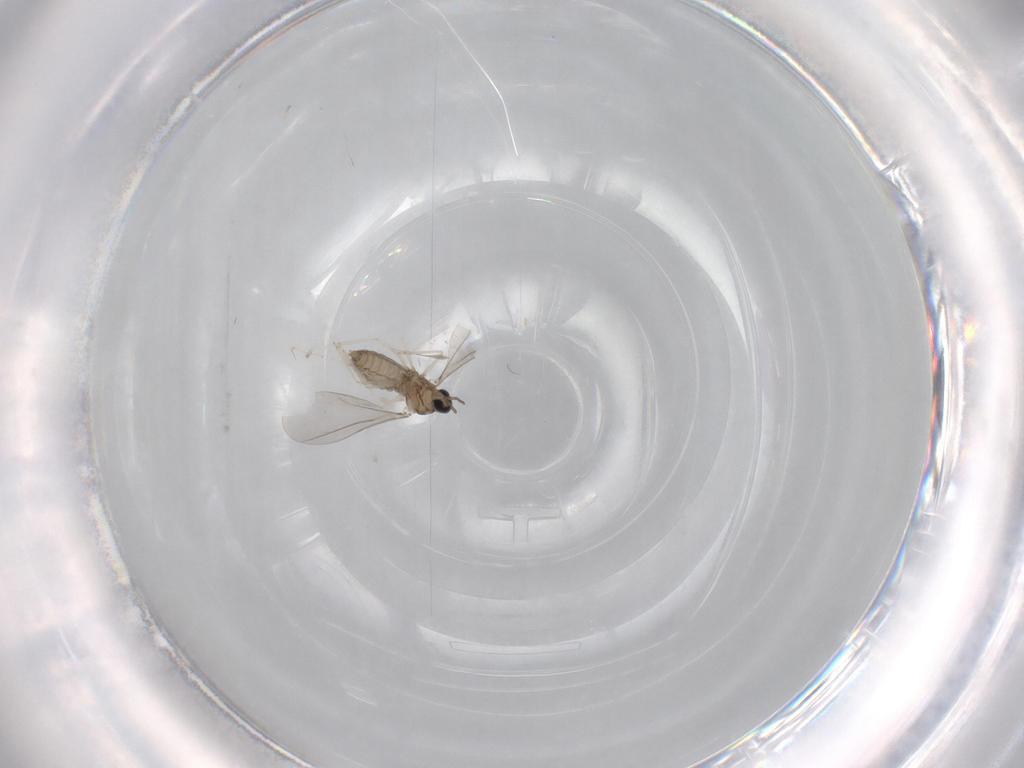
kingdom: Animalia
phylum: Arthropoda
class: Insecta
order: Diptera
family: Cecidomyiidae
